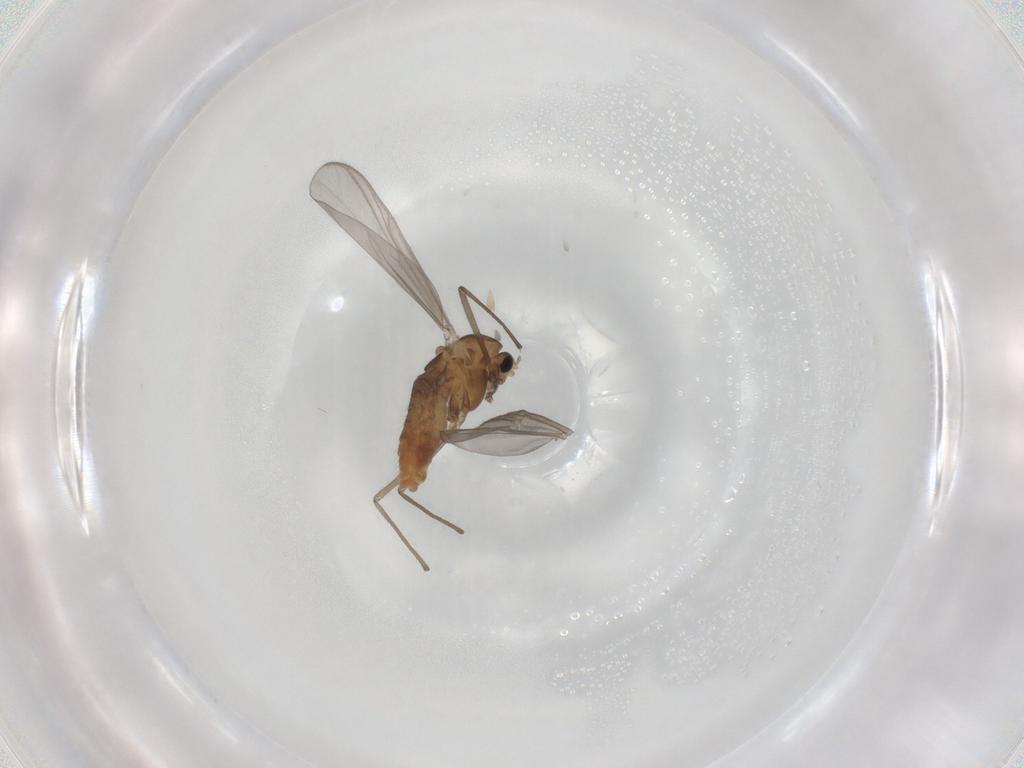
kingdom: Animalia
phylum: Arthropoda
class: Insecta
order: Diptera
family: Chironomidae
